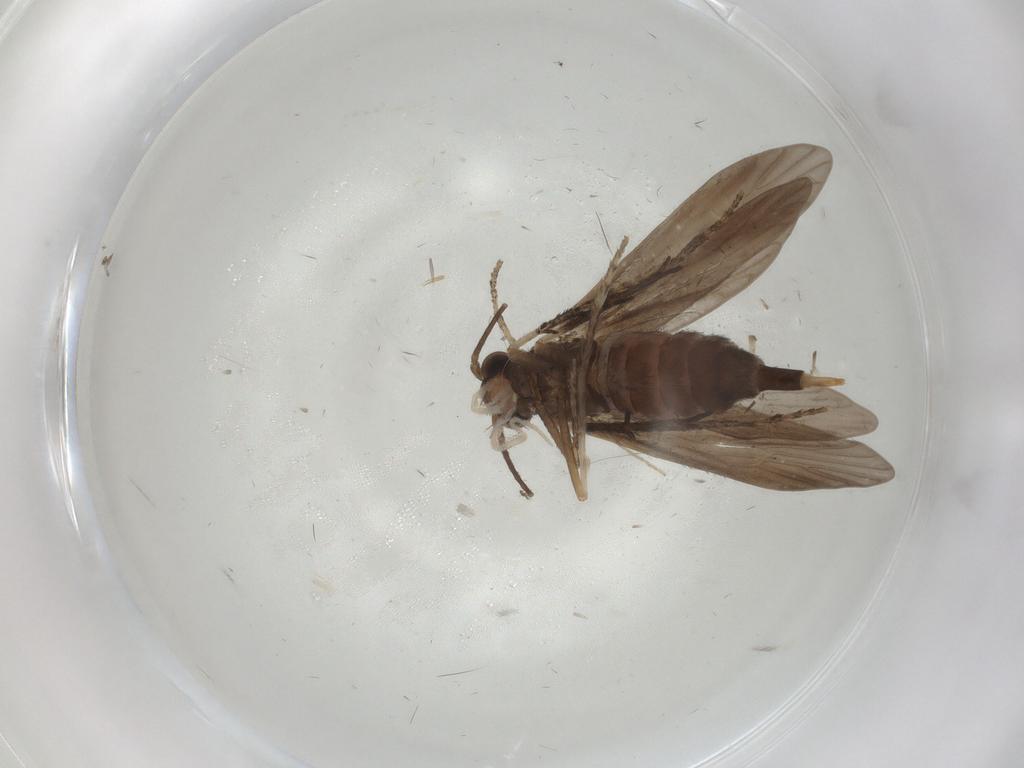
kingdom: Animalia
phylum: Arthropoda
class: Insecta
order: Trichoptera
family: Xiphocentronidae
